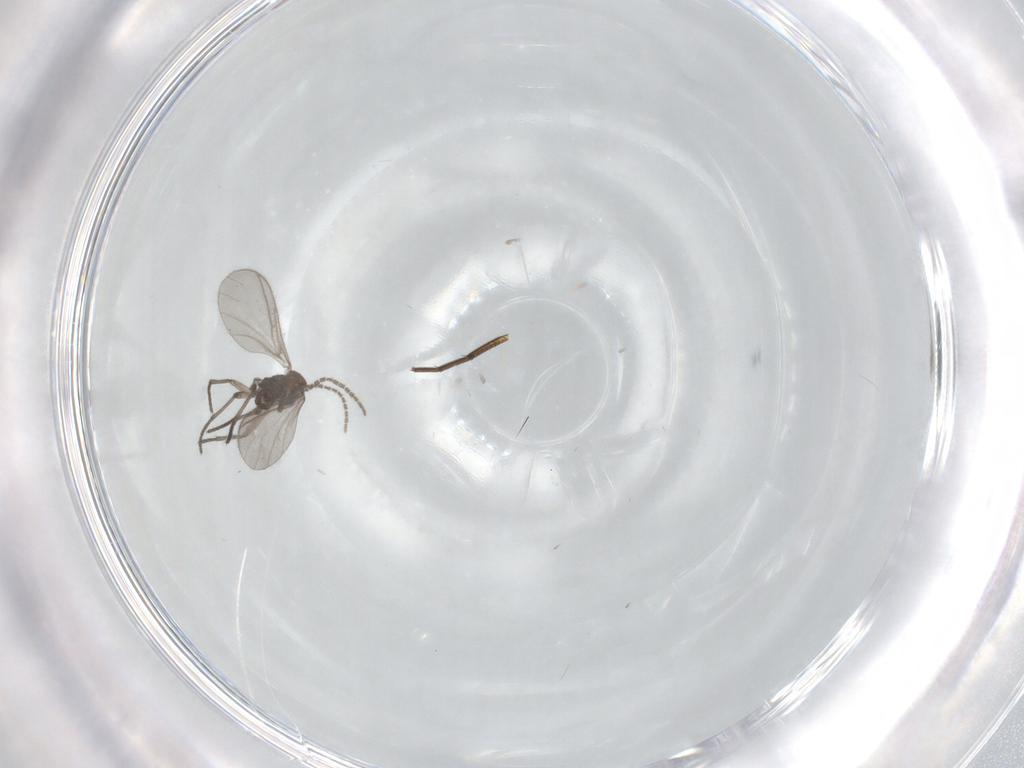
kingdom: Animalia
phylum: Arthropoda
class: Insecta
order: Diptera
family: Phoridae
